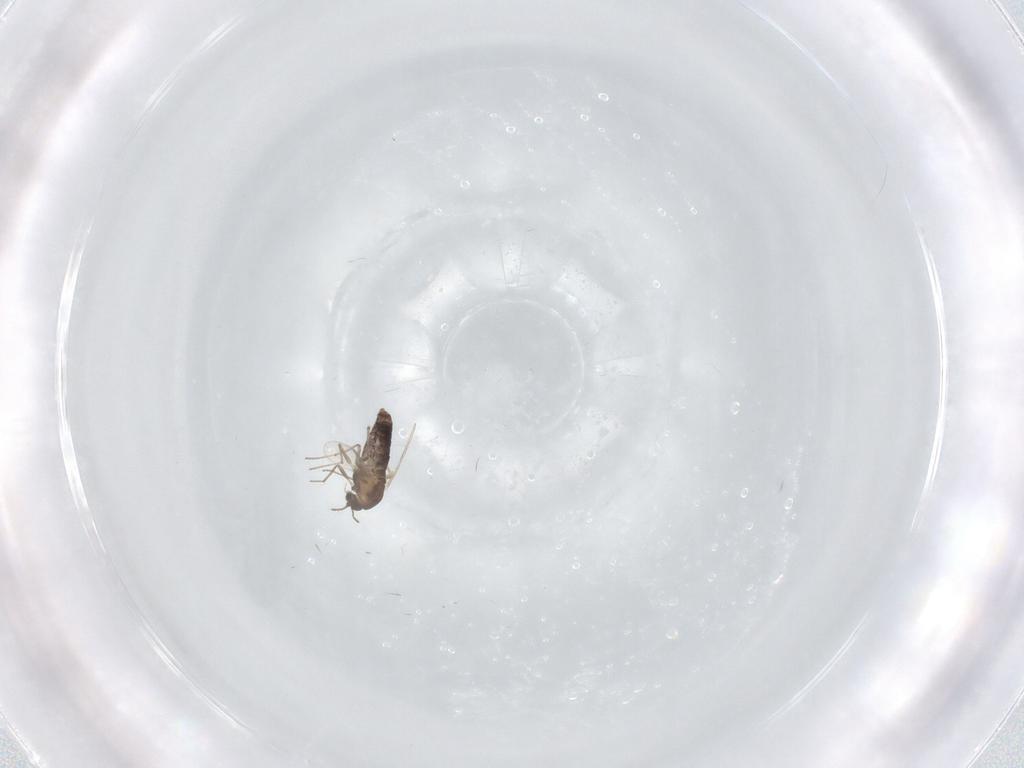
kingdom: Animalia
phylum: Arthropoda
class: Insecta
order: Diptera
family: Chironomidae
